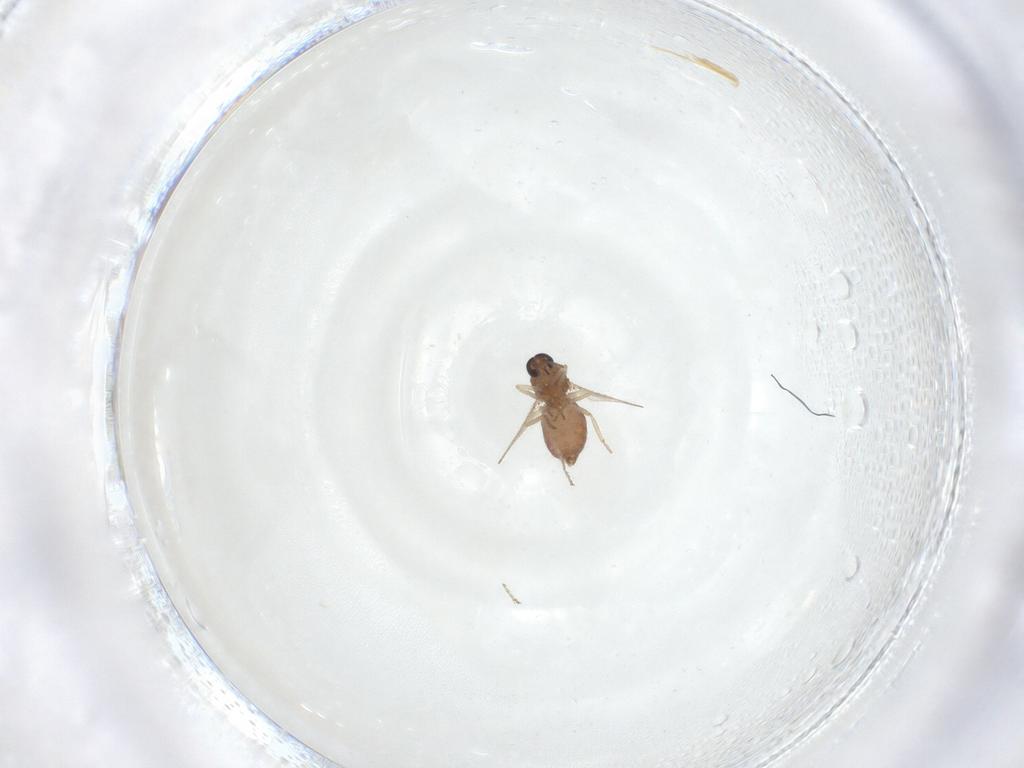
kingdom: Animalia
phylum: Arthropoda
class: Insecta
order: Diptera
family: Ceratopogonidae
